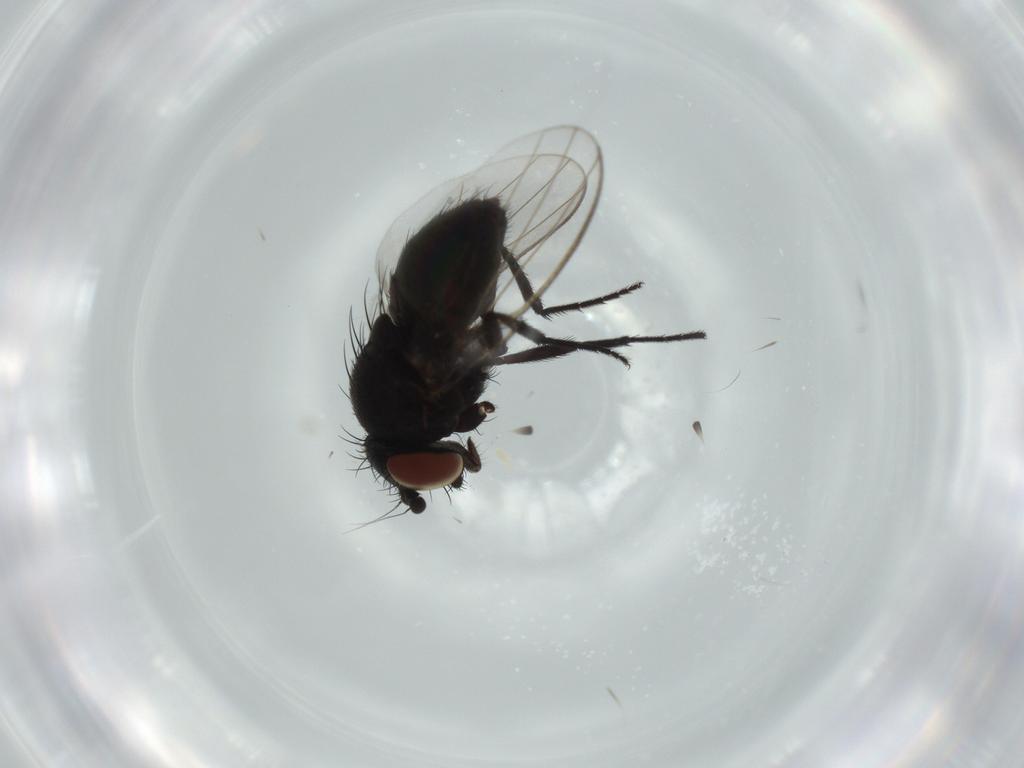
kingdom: Animalia
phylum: Arthropoda
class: Insecta
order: Diptera
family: Milichiidae
